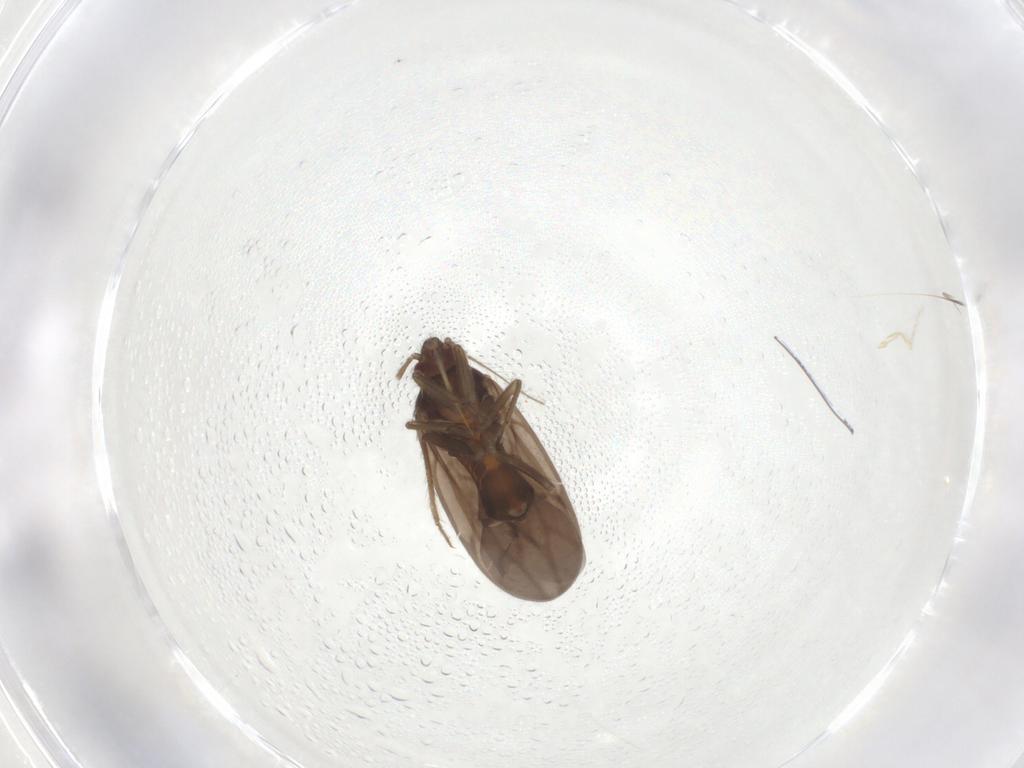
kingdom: Animalia
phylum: Arthropoda
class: Insecta
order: Hemiptera
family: Ceratocombidae
